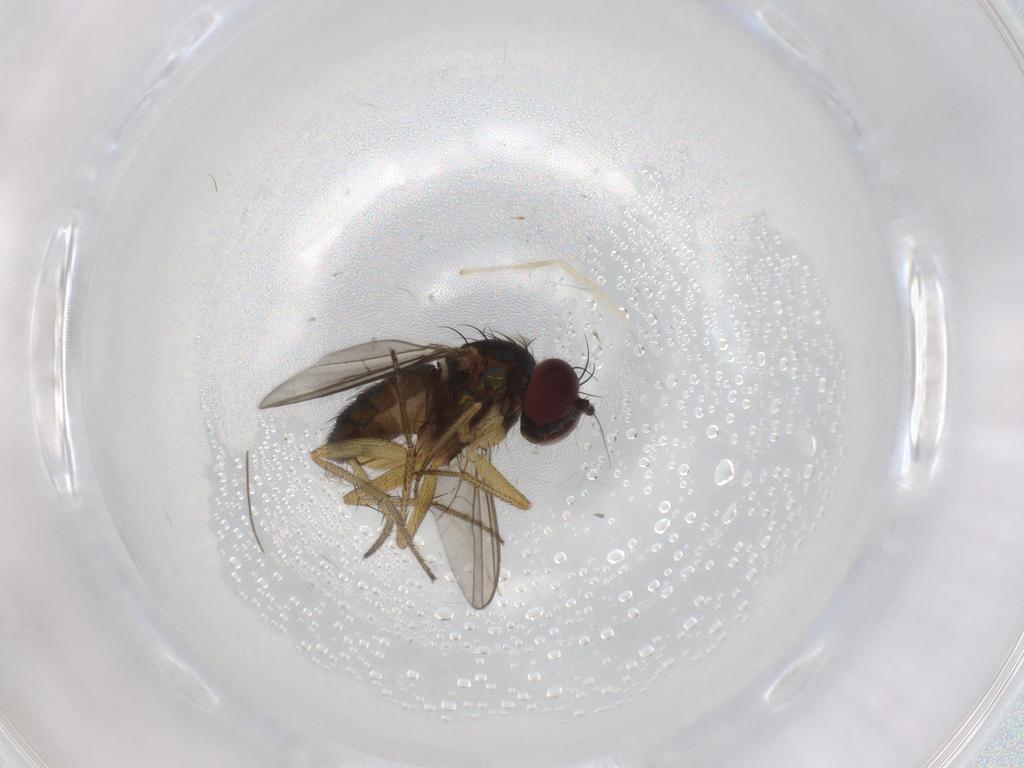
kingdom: Animalia
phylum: Arthropoda
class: Insecta
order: Diptera
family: Chironomidae
